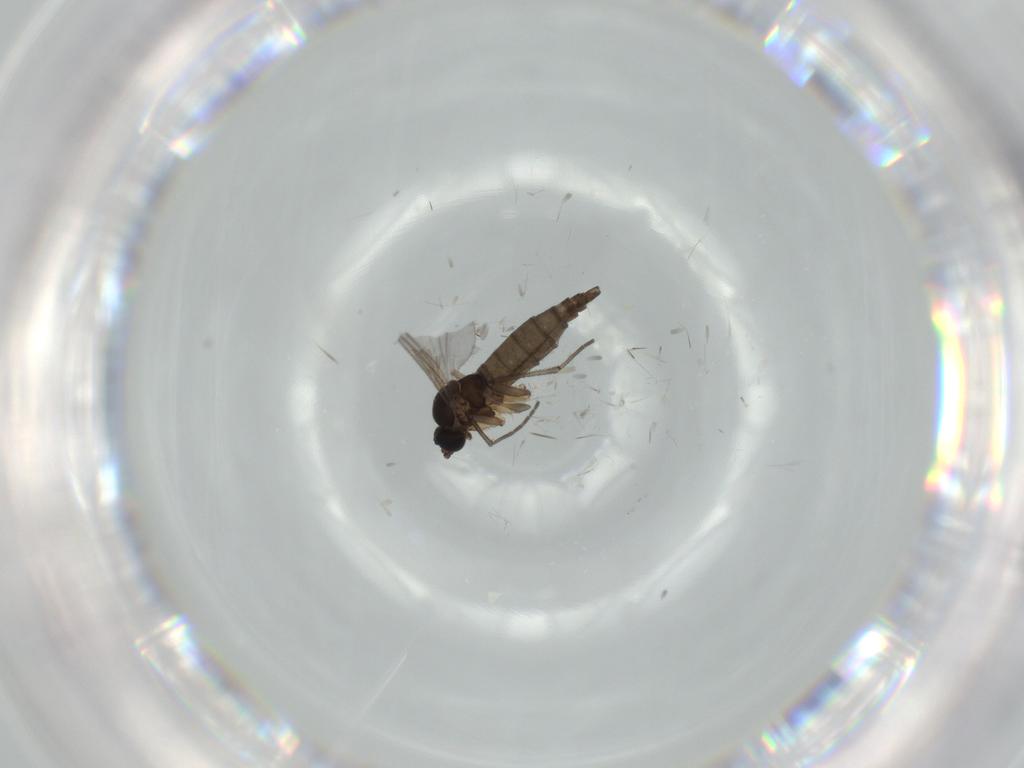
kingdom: Animalia
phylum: Arthropoda
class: Insecta
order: Diptera
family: Sciaridae
